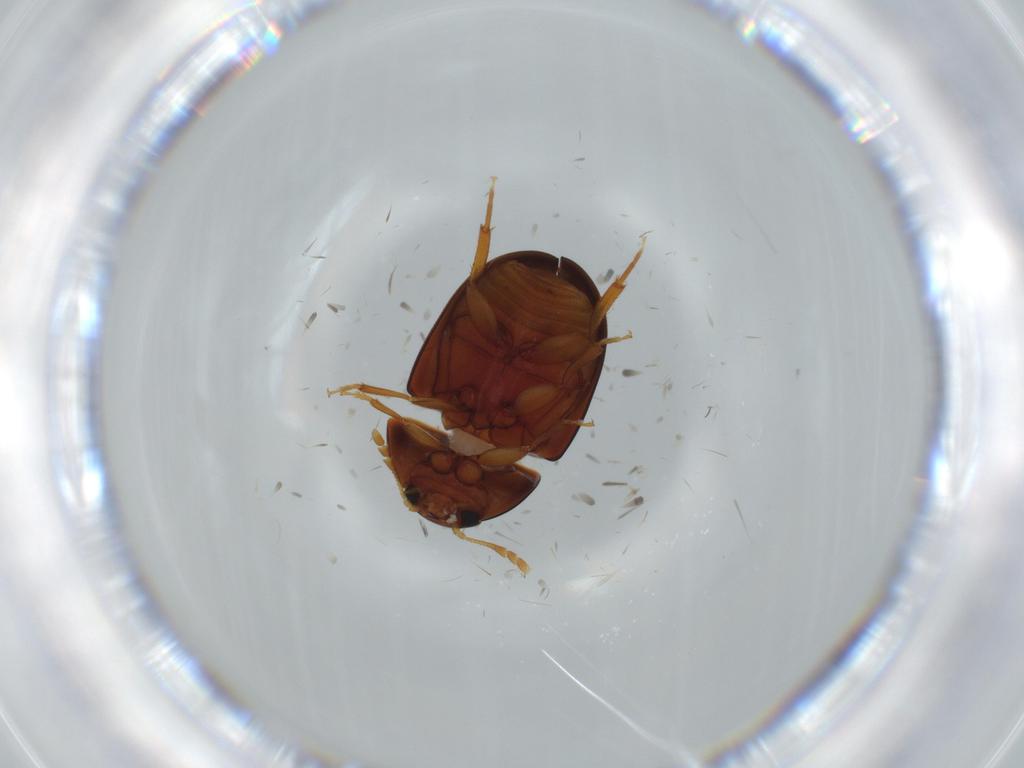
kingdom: Animalia
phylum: Arthropoda
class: Insecta
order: Coleoptera
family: Phalacridae
